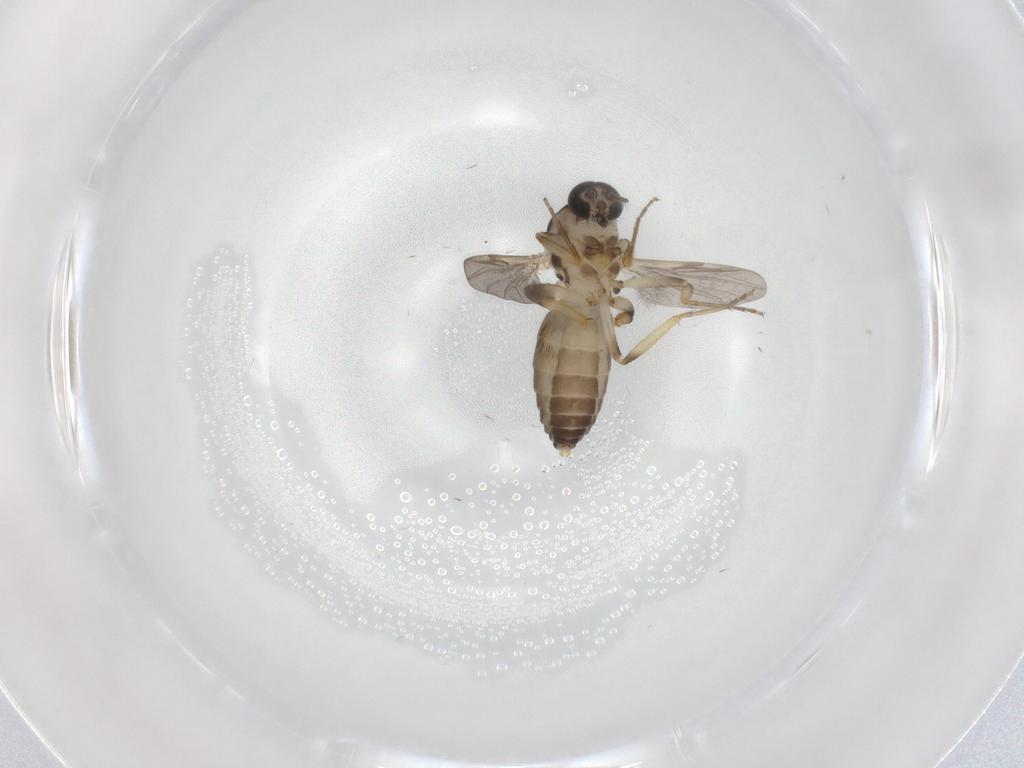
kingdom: Animalia
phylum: Arthropoda
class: Insecta
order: Diptera
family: Ceratopogonidae
